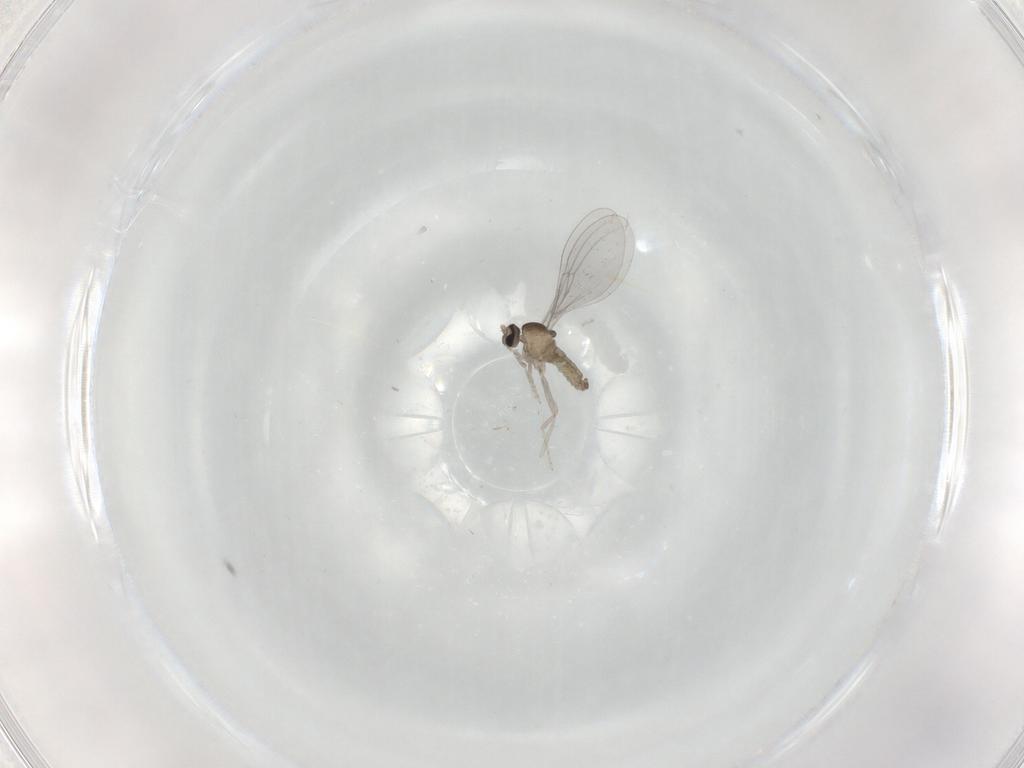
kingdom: Animalia
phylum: Arthropoda
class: Insecta
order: Diptera
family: Cecidomyiidae
